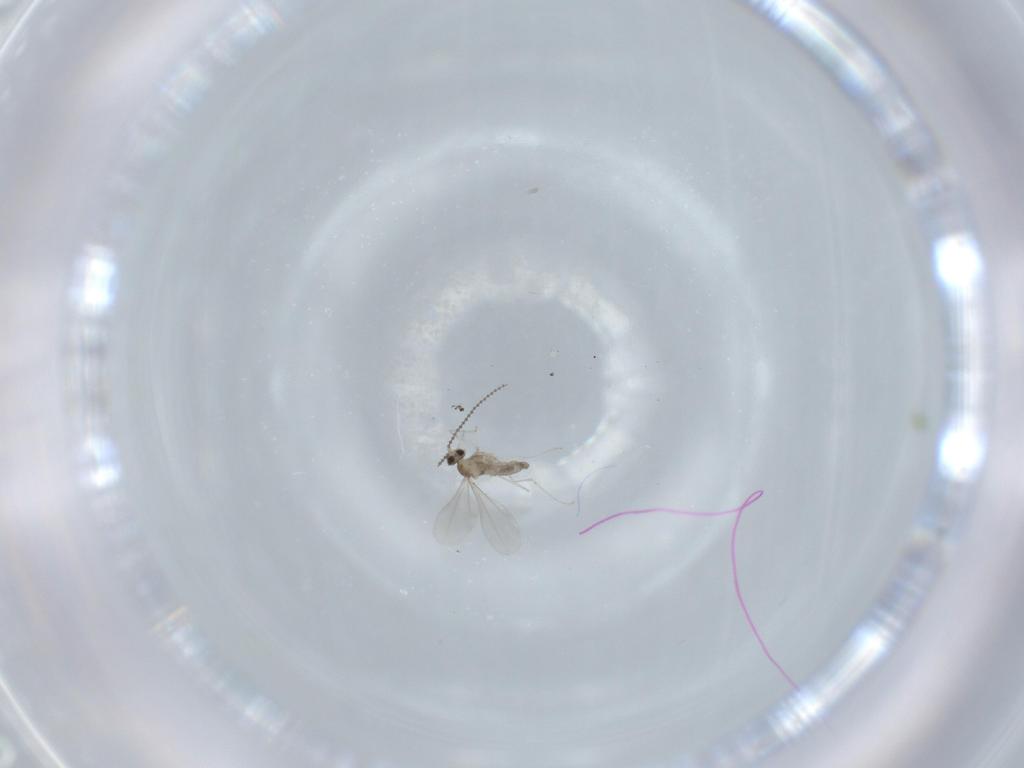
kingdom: Animalia
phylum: Arthropoda
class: Insecta
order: Diptera
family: Cecidomyiidae
